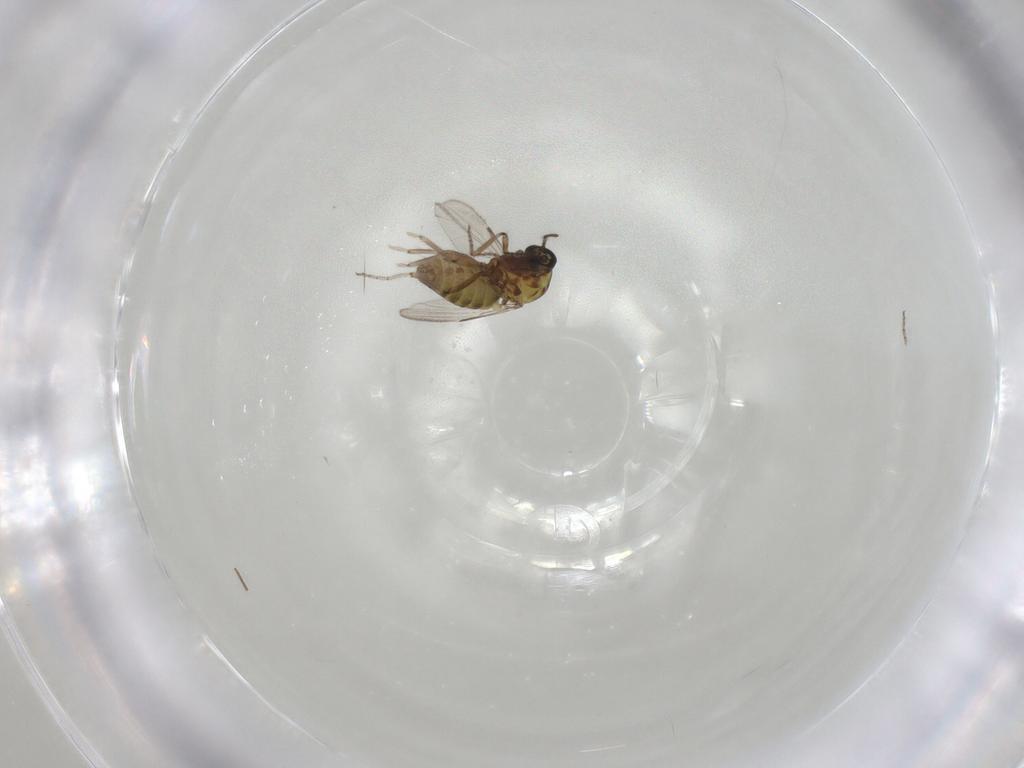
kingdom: Animalia
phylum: Arthropoda
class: Insecta
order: Diptera
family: Ceratopogonidae
